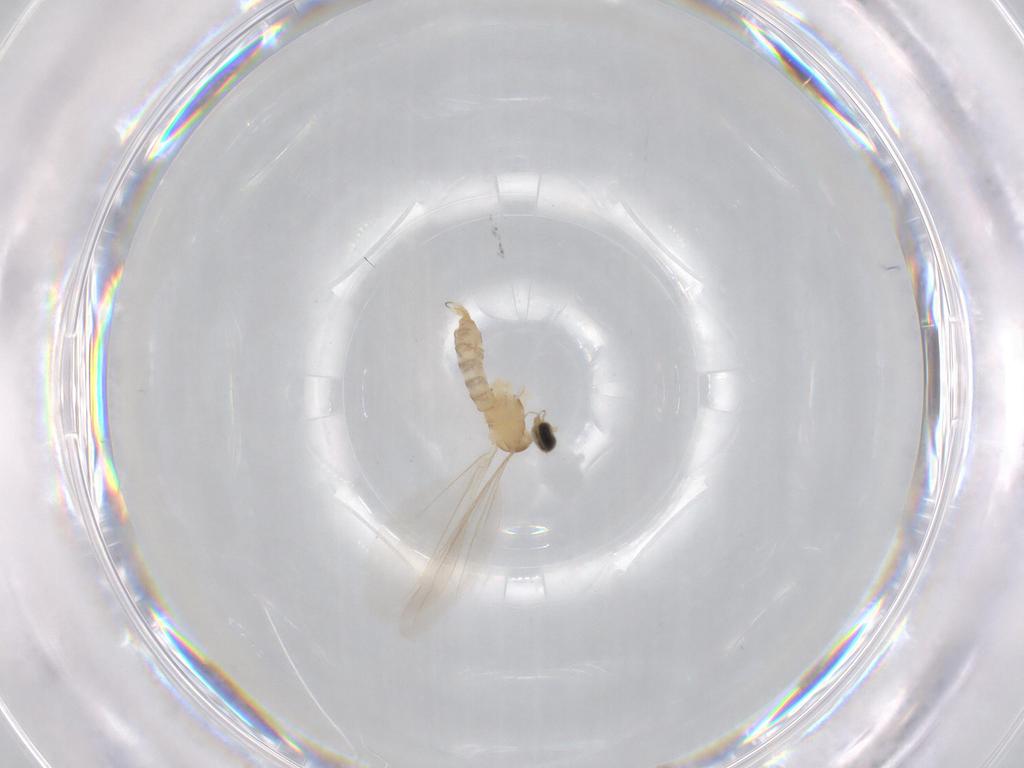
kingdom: Animalia
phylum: Arthropoda
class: Insecta
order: Diptera
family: Cecidomyiidae
